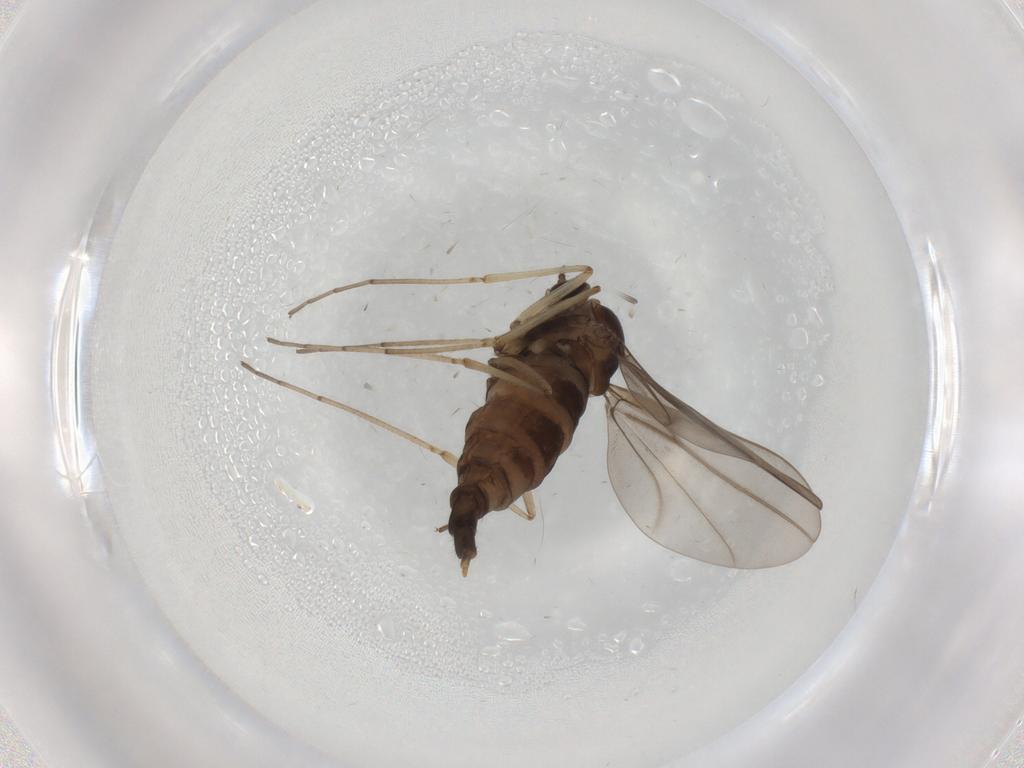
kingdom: Animalia
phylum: Arthropoda
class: Insecta
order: Diptera
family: Cecidomyiidae
